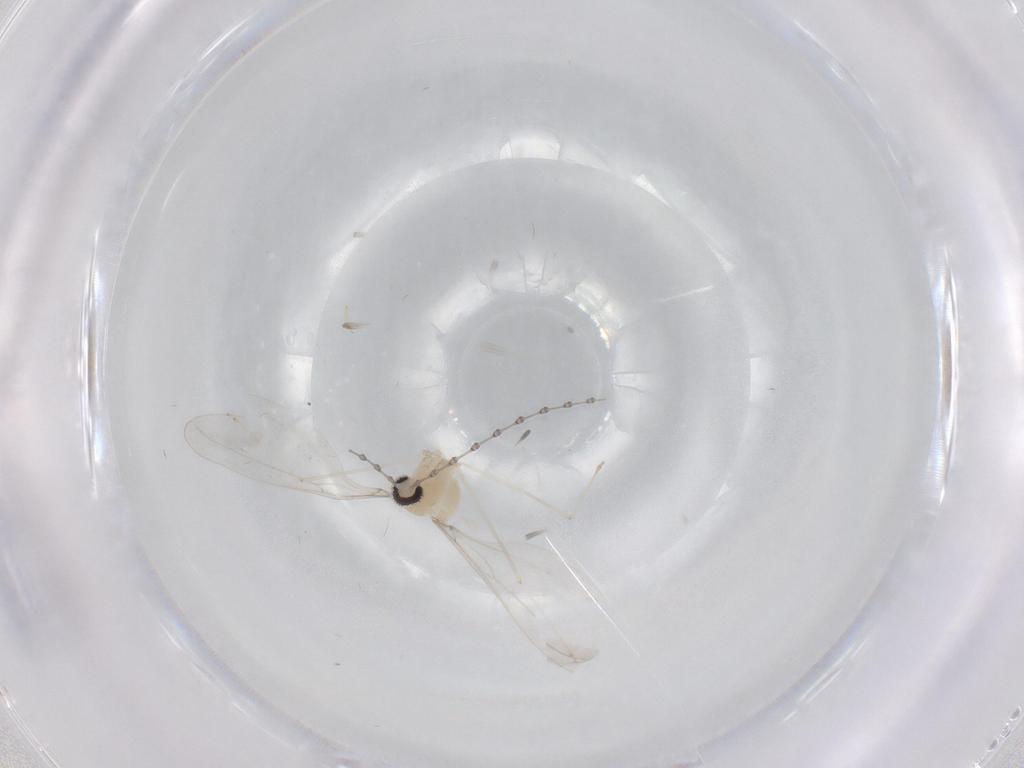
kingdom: Animalia
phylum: Arthropoda
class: Insecta
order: Diptera
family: Cecidomyiidae
